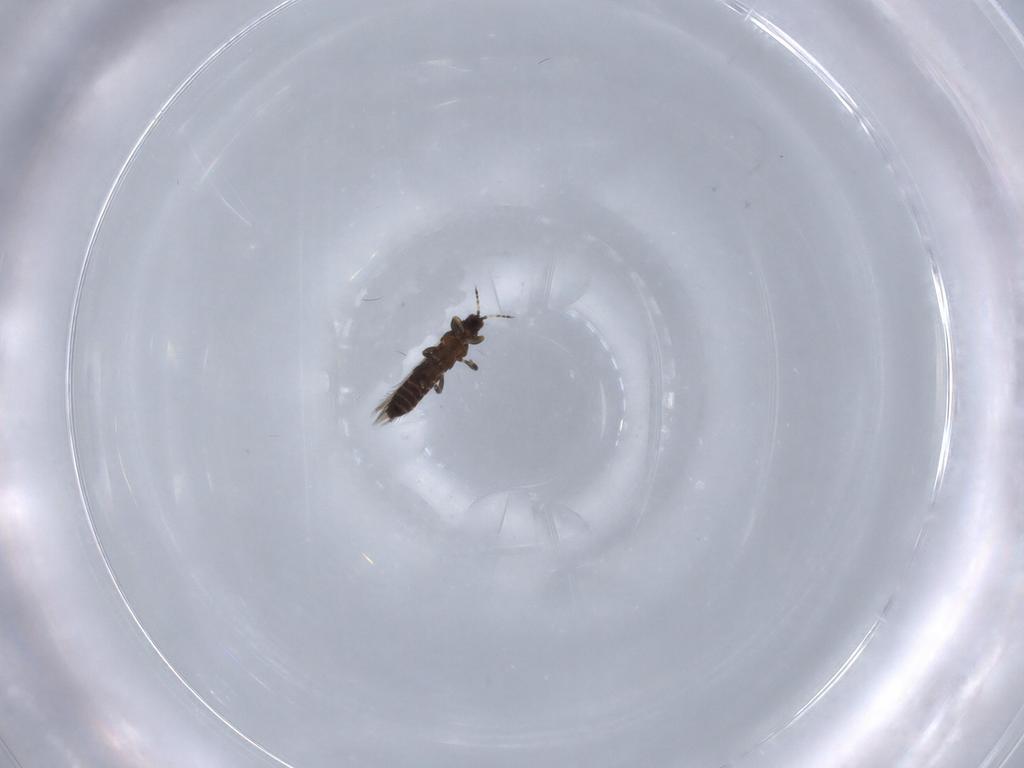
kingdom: Animalia
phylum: Arthropoda
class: Insecta
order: Thysanoptera
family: Thripidae
